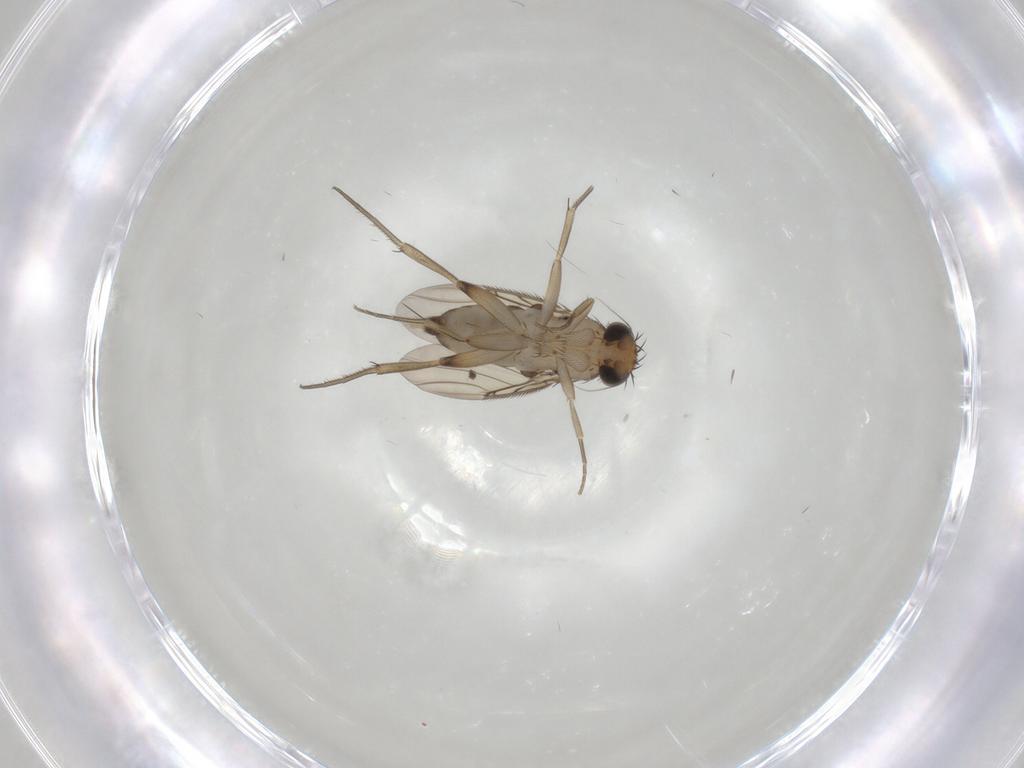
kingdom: Animalia
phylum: Arthropoda
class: Insecta
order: Diptera
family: Phoridae
